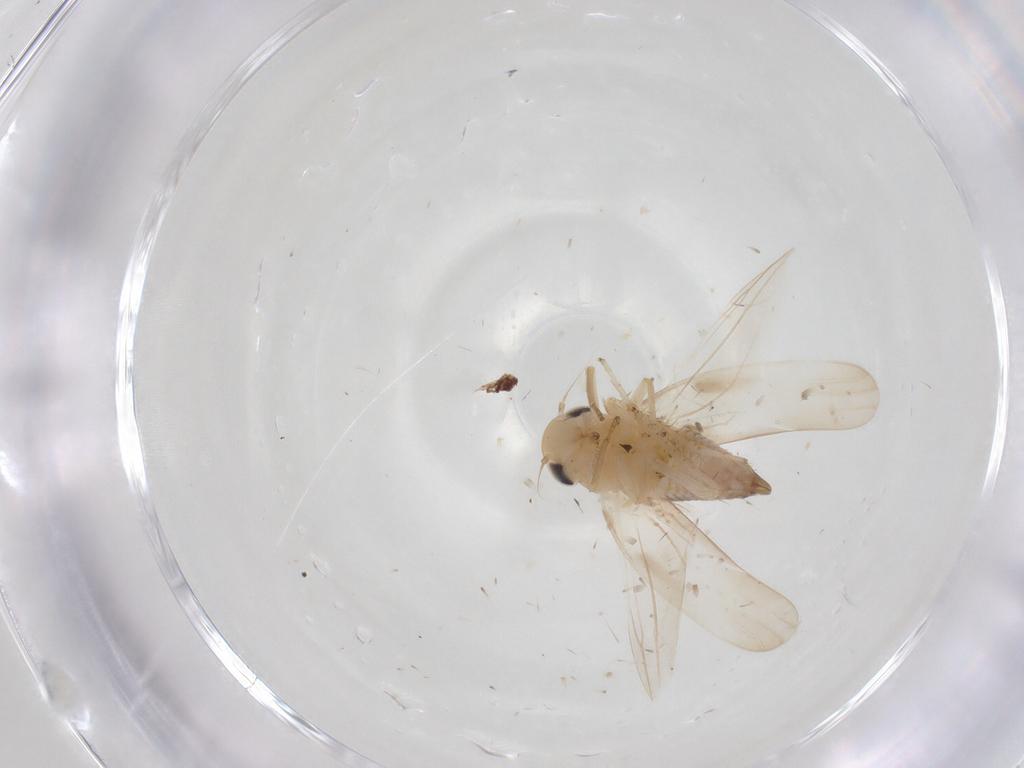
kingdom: Animalia
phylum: Arthropoda
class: Insecta
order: Hemiptera
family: Cicadellidae
